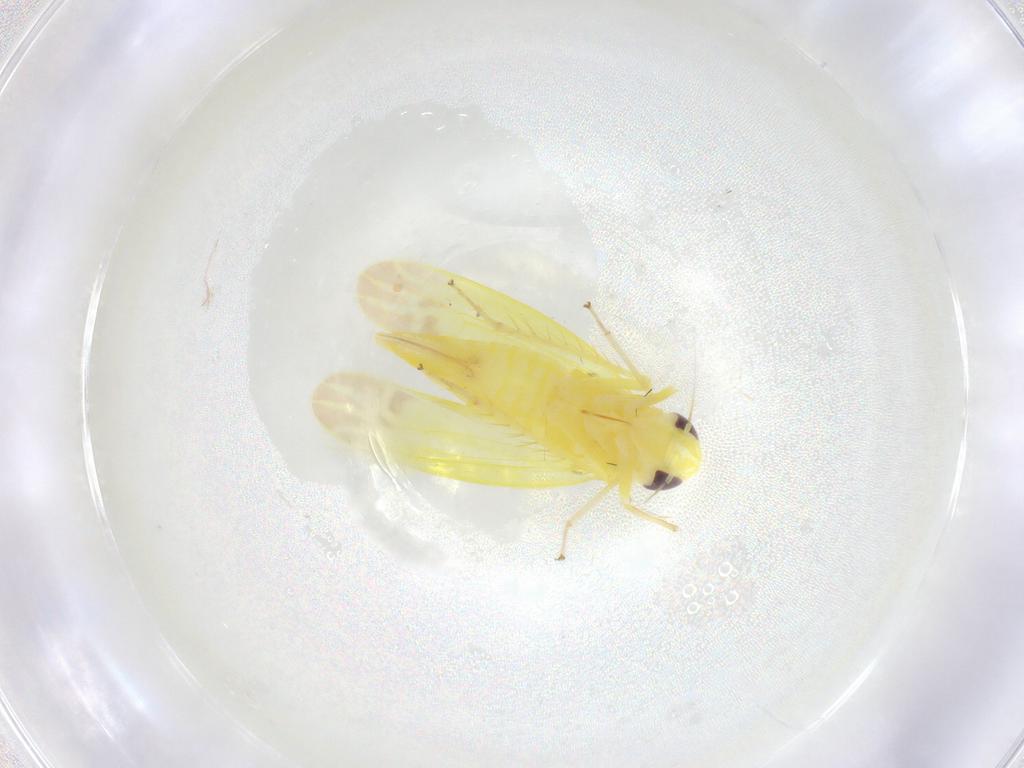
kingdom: Animalia
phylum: Arthropoda
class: Insecta
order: Hemiptera
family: Cicadellidae
